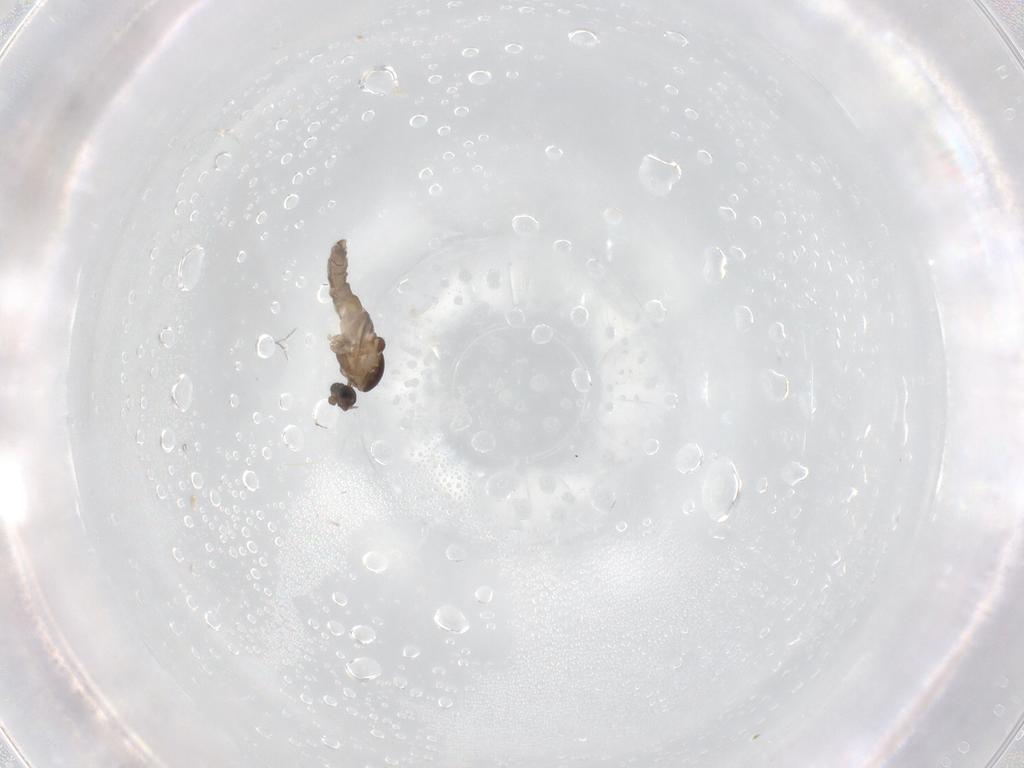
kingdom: Animalia
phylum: Arthropoda
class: Insecta
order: Diptera
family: Cecidomyiidae
